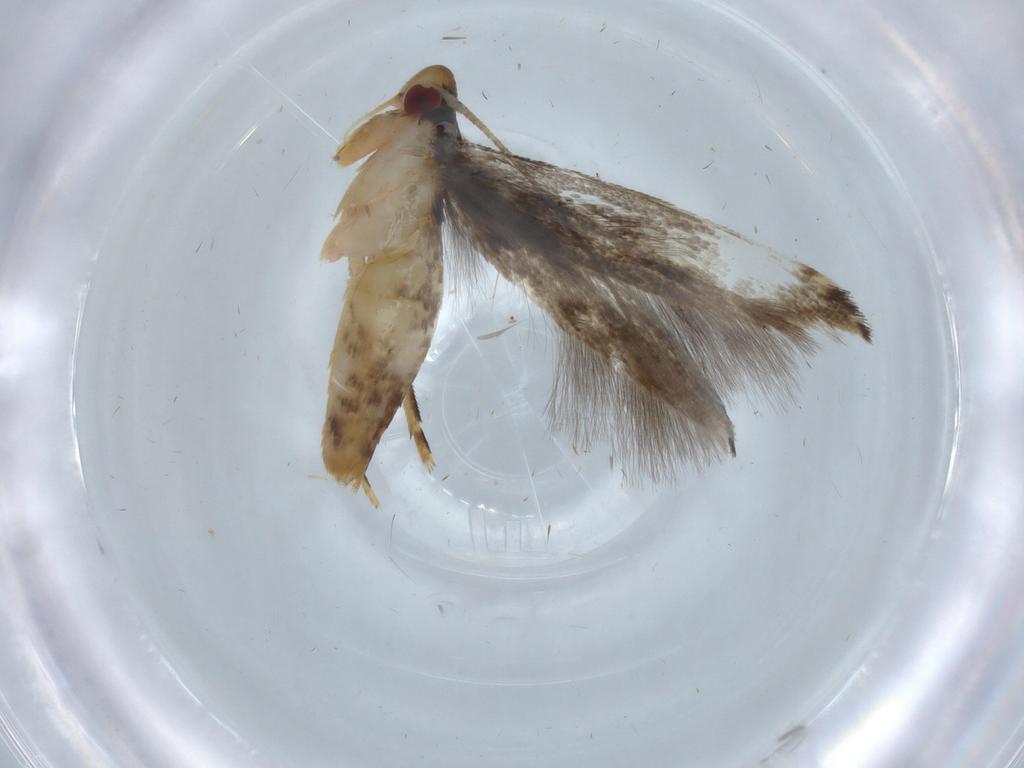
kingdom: Animalia
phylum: Arthropoda
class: Insecta
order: Lepidoptera
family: Momphidae
